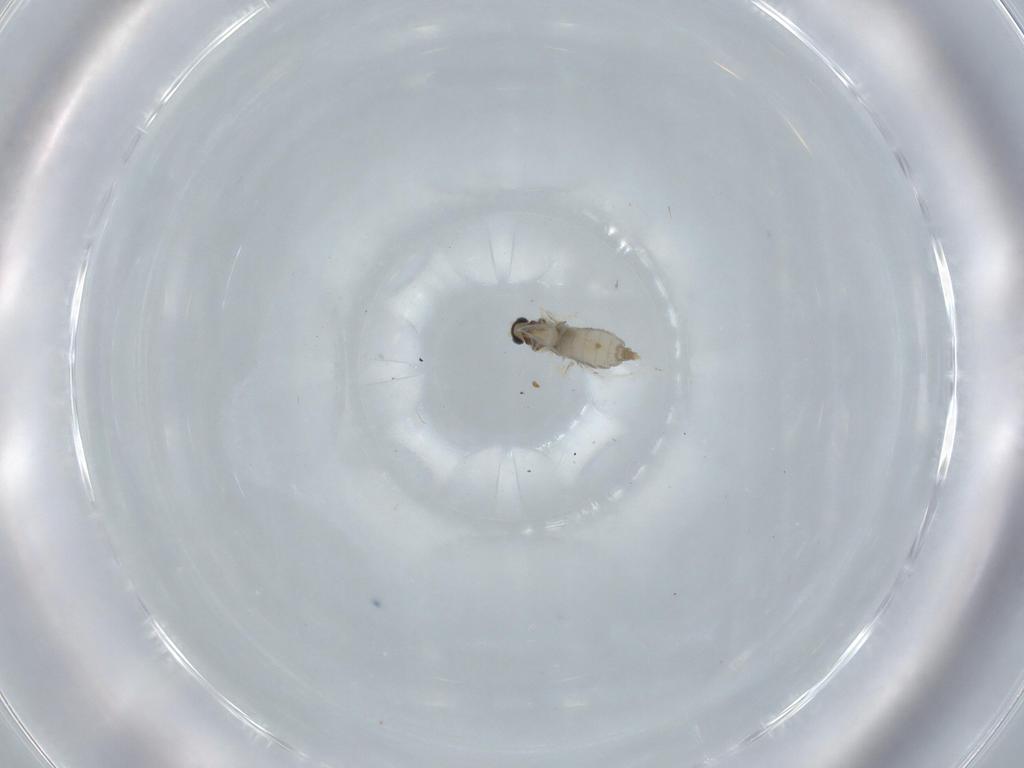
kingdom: Animalia
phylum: Arthropoda
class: Insecta
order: Diptera
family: Cecidomyiidae
